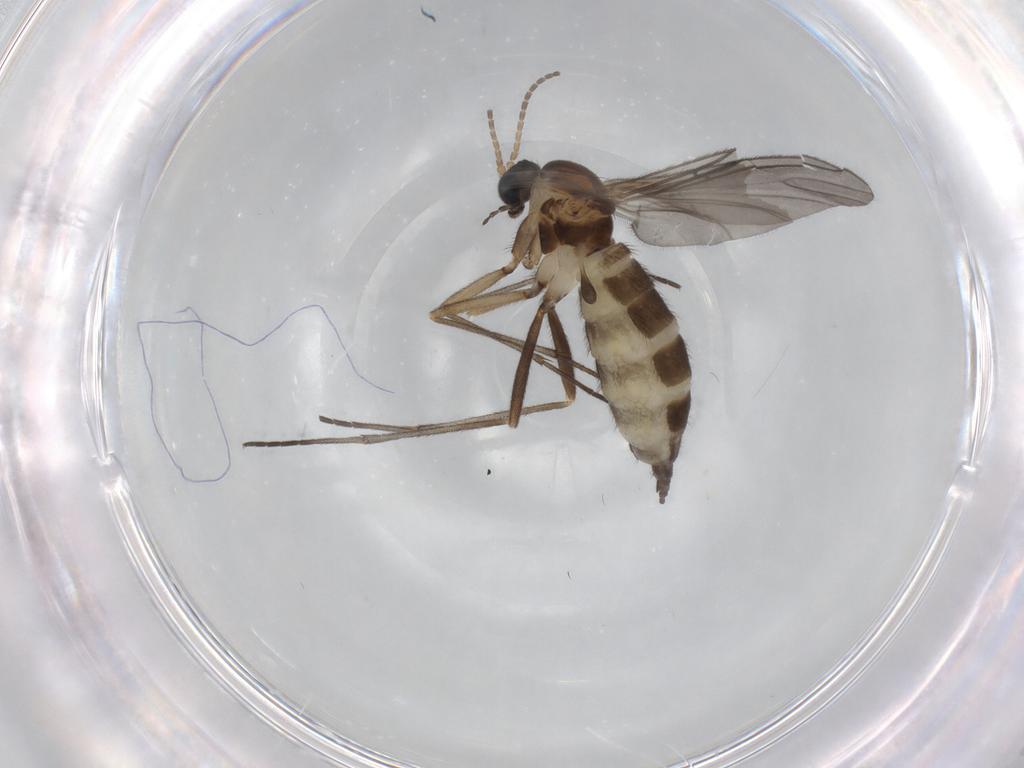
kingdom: Animalia
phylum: Arthropoda
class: Insecta
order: Diptera
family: Sciaridae
